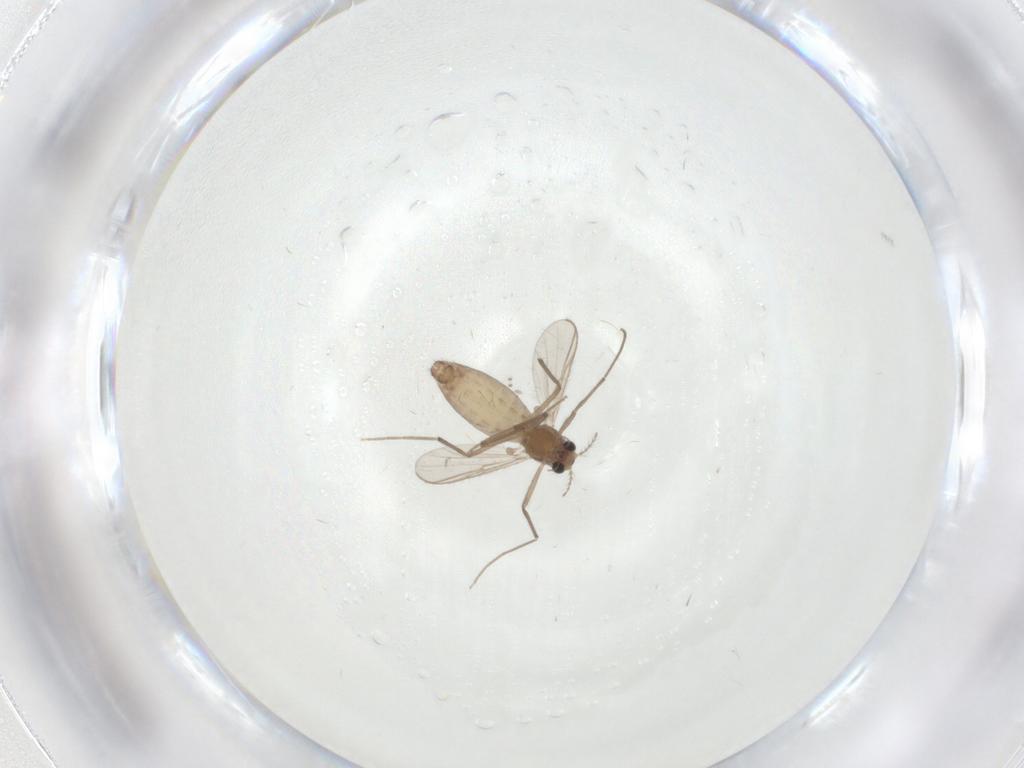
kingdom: Animalia
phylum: Arthropoda
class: Insecta
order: Diptera
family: Chironomidae
